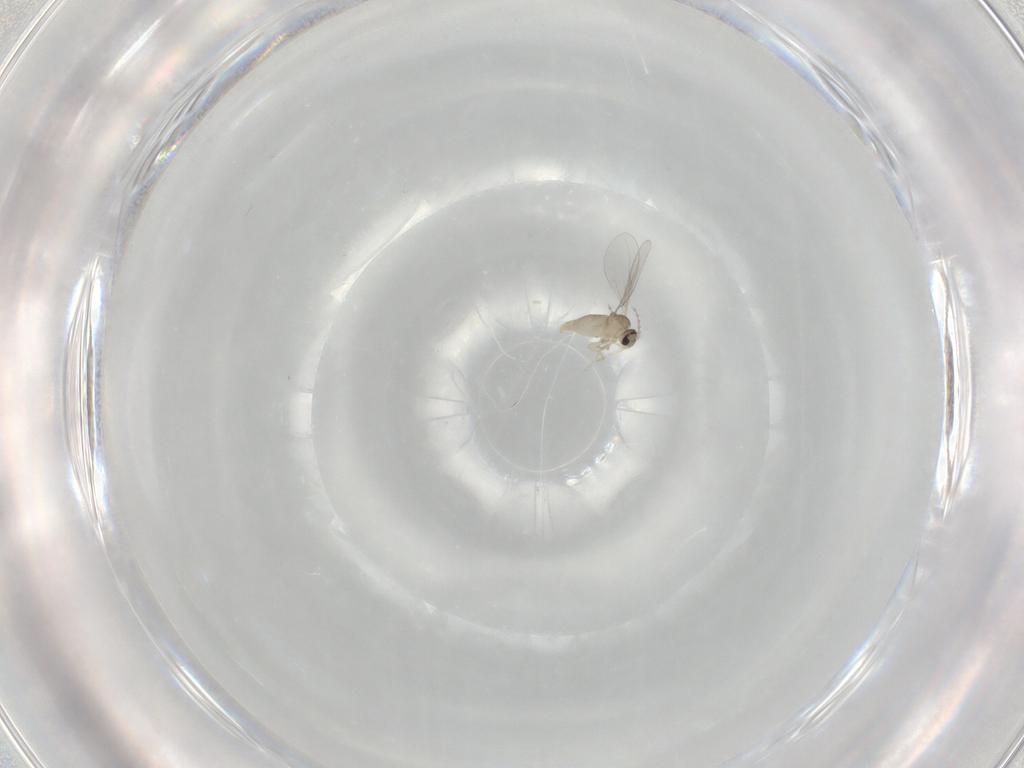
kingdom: Animalia
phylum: Arthropoda
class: Insecta
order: Diptera
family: Cecidomyiidae
